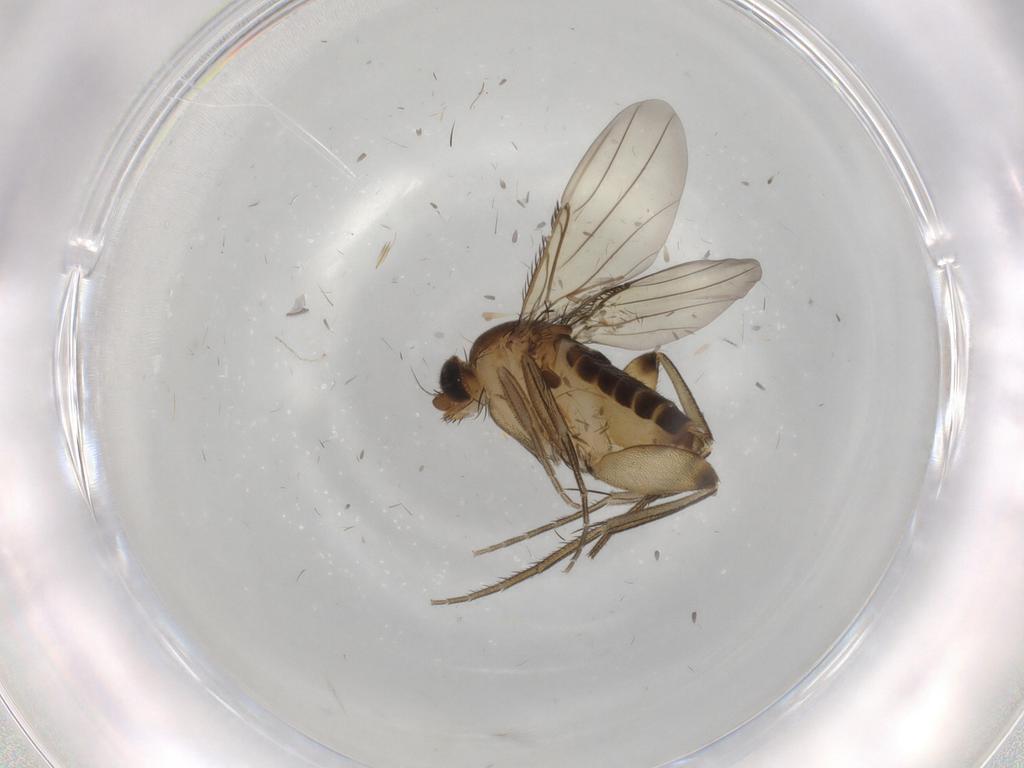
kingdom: Animalia
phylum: Arthropoda
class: Insecta
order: Diptera
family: Phoridae
